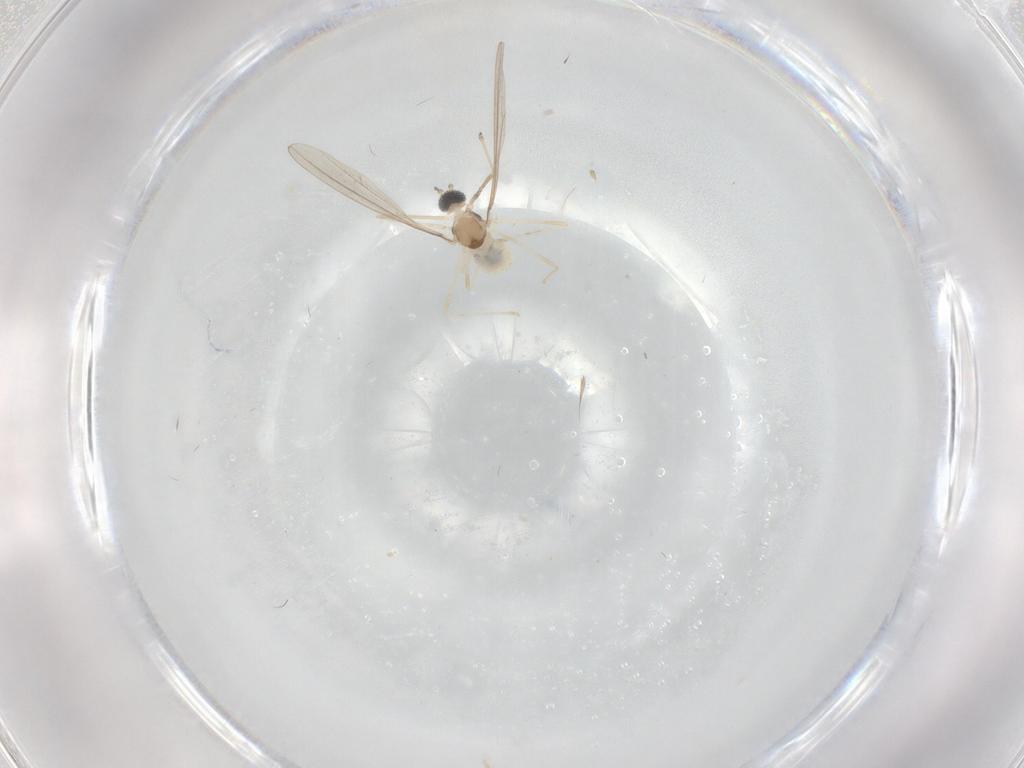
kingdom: Animalia
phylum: Arthropoda
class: Insecta
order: Diptera
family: Cecidomyiidae
